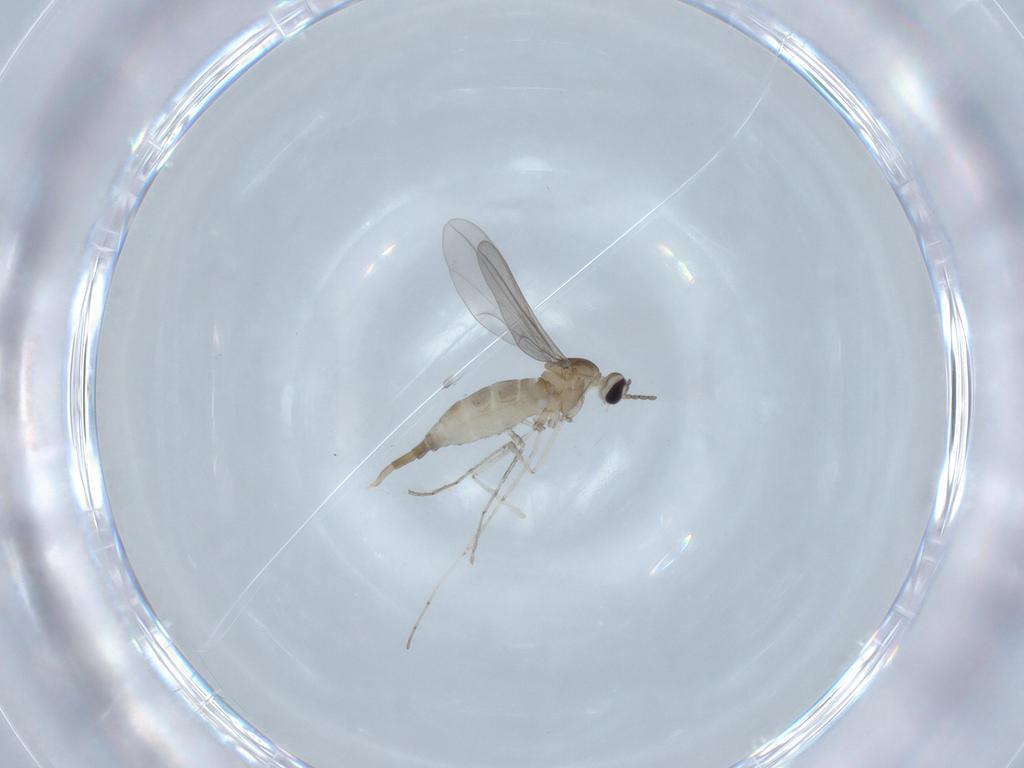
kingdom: Animalia
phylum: Arthropoda
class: Insecta
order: Diptera
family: Cecidomyiidae
